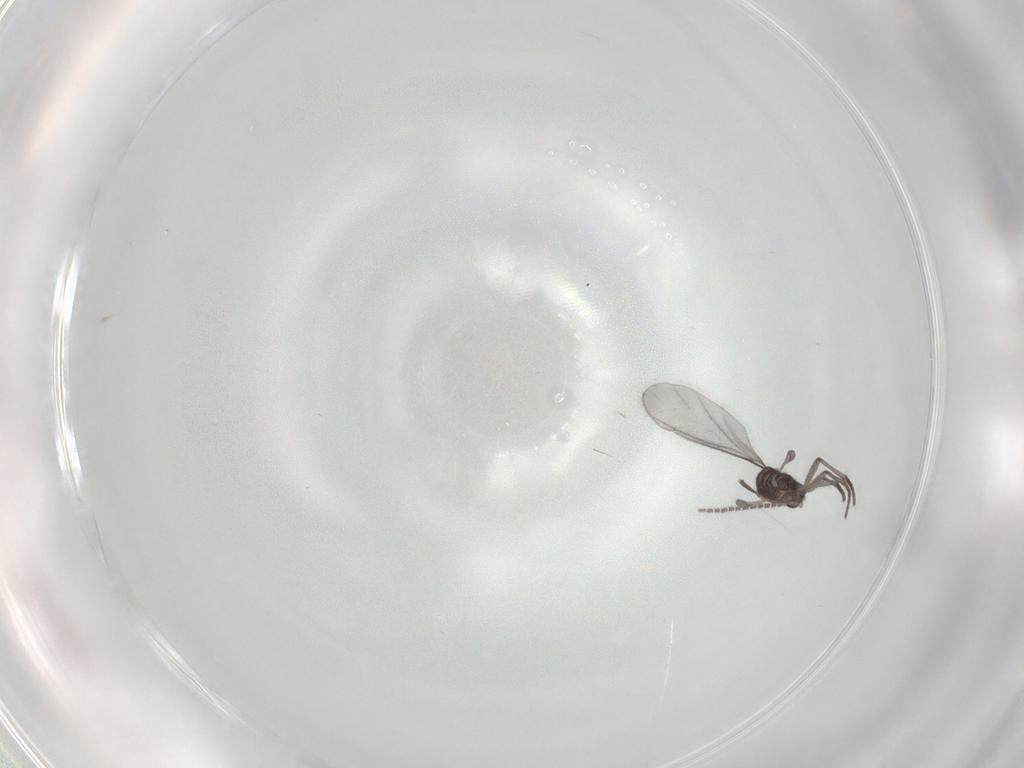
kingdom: Animalia
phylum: Arthropoda
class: Insecta
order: Diptera
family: Sciaridae
